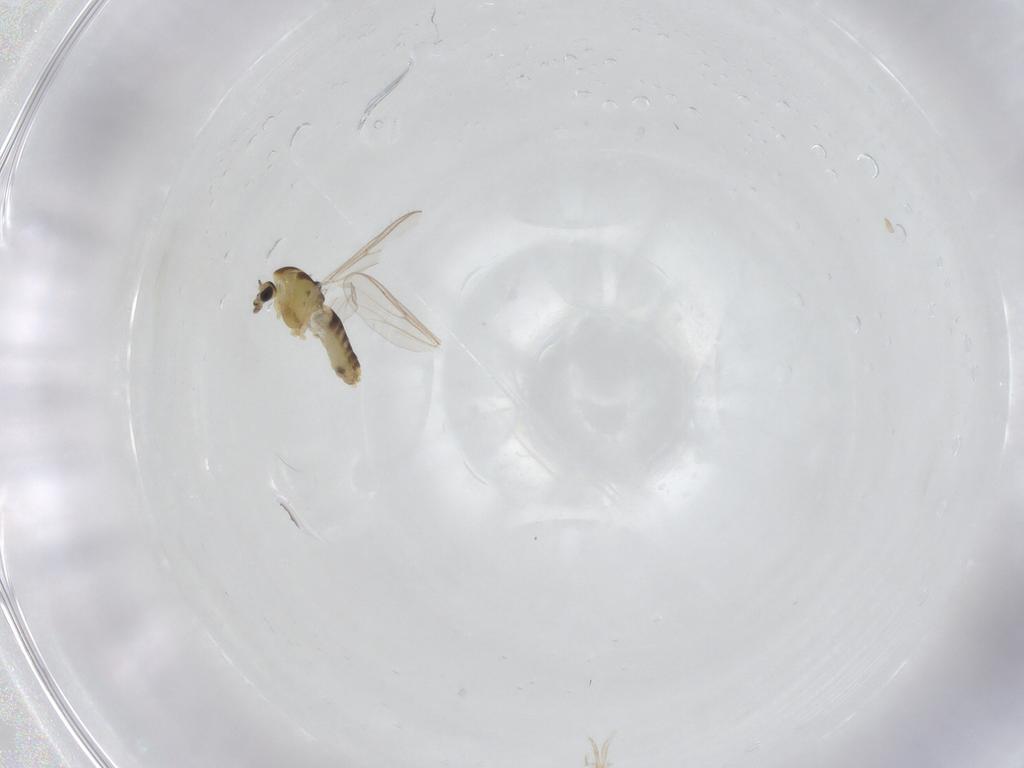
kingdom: Animalia
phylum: Arthropoda
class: Insecta
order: Diptera
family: Chironomidae
